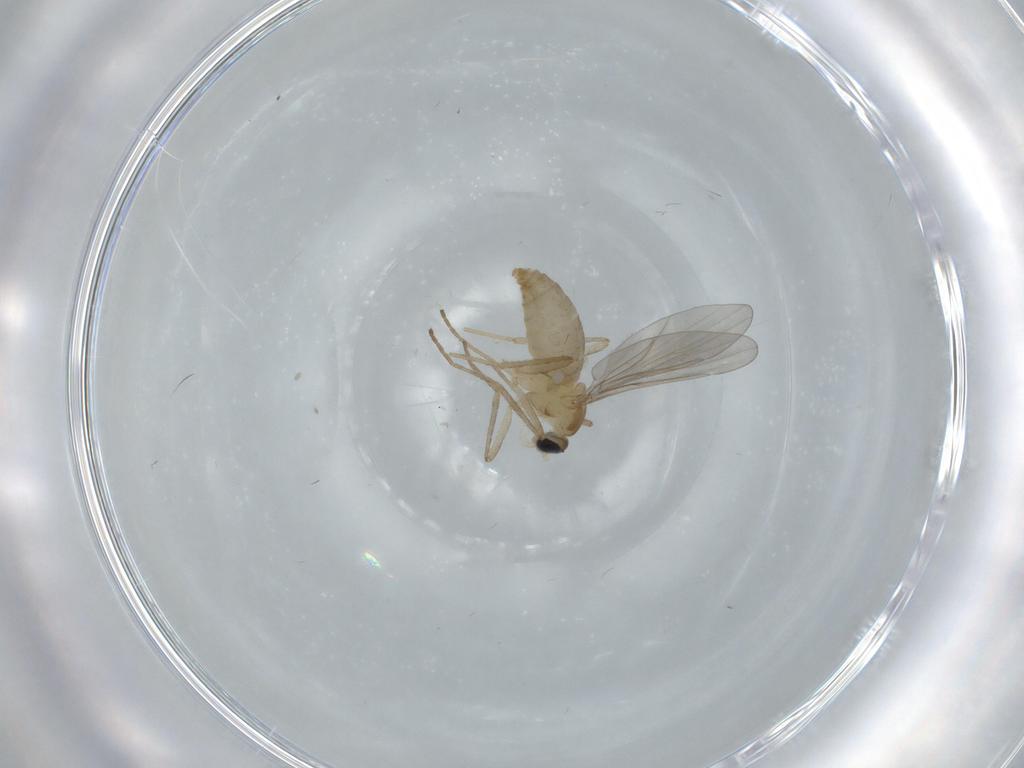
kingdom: Animalia
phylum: Arthropoda
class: Insecta
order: Diptera
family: Cecidomyiidae
